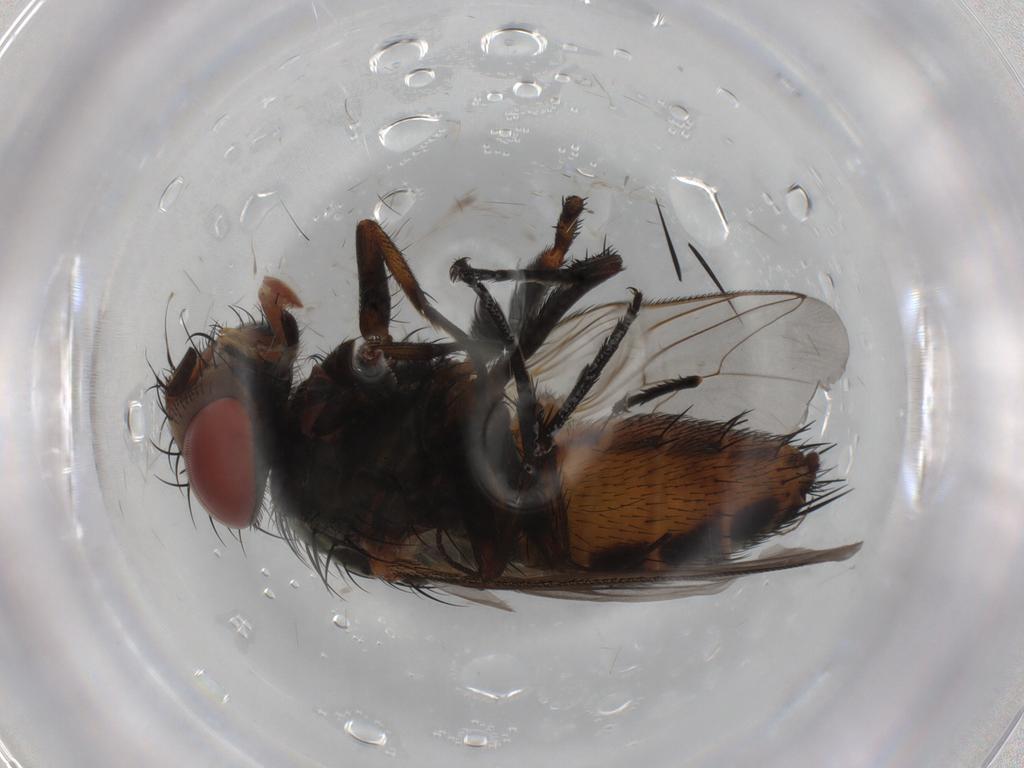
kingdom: Animalia
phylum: Arthropoda
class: Insecta
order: Diptera
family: Sarcophagidae
